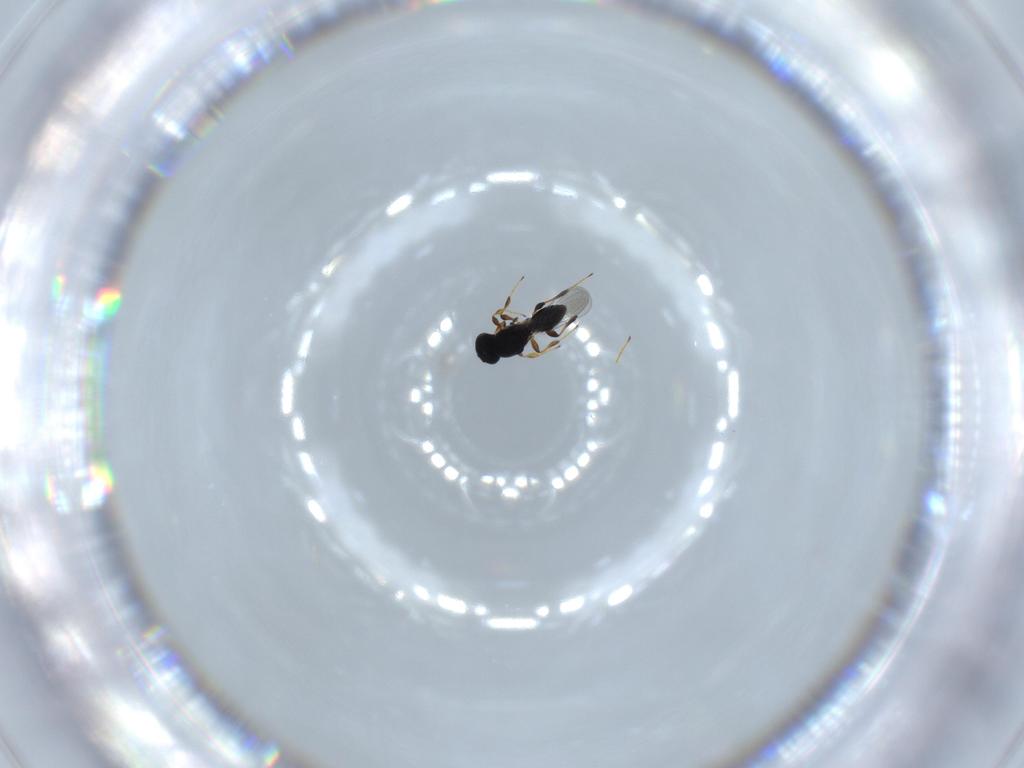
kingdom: Animalia
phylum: Arthropoda
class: Insecta
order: Hymenoptera
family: Platygastridae
